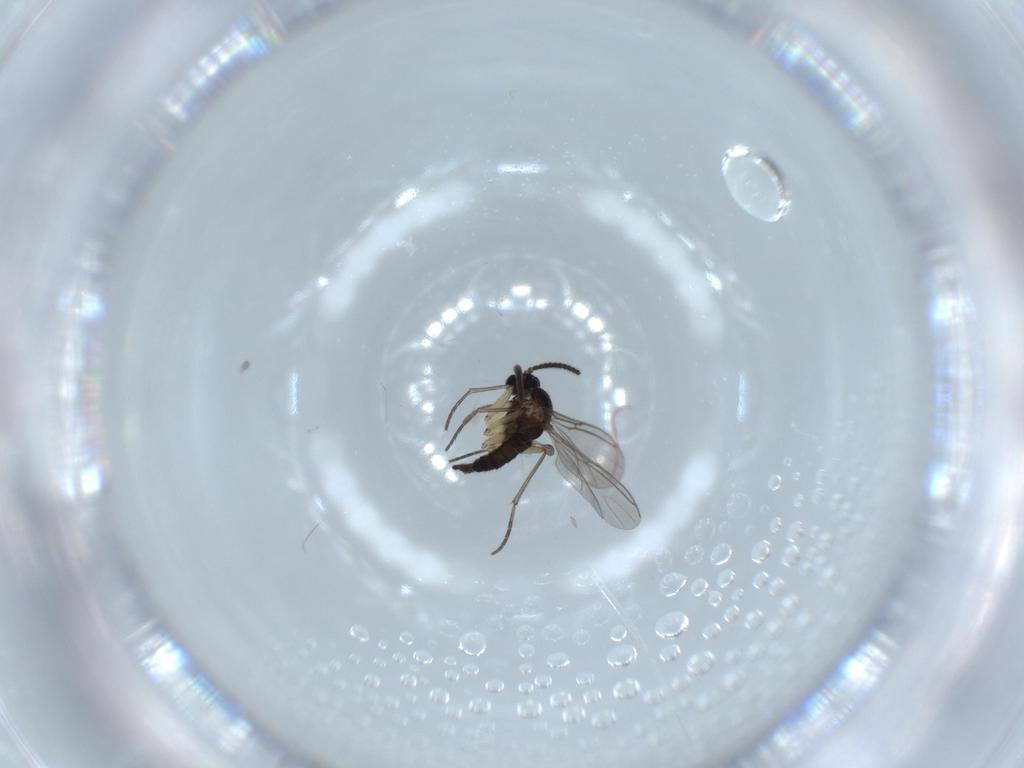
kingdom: Animalia
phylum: Arthropoda
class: Insecta
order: Diptera
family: Sciaridae
